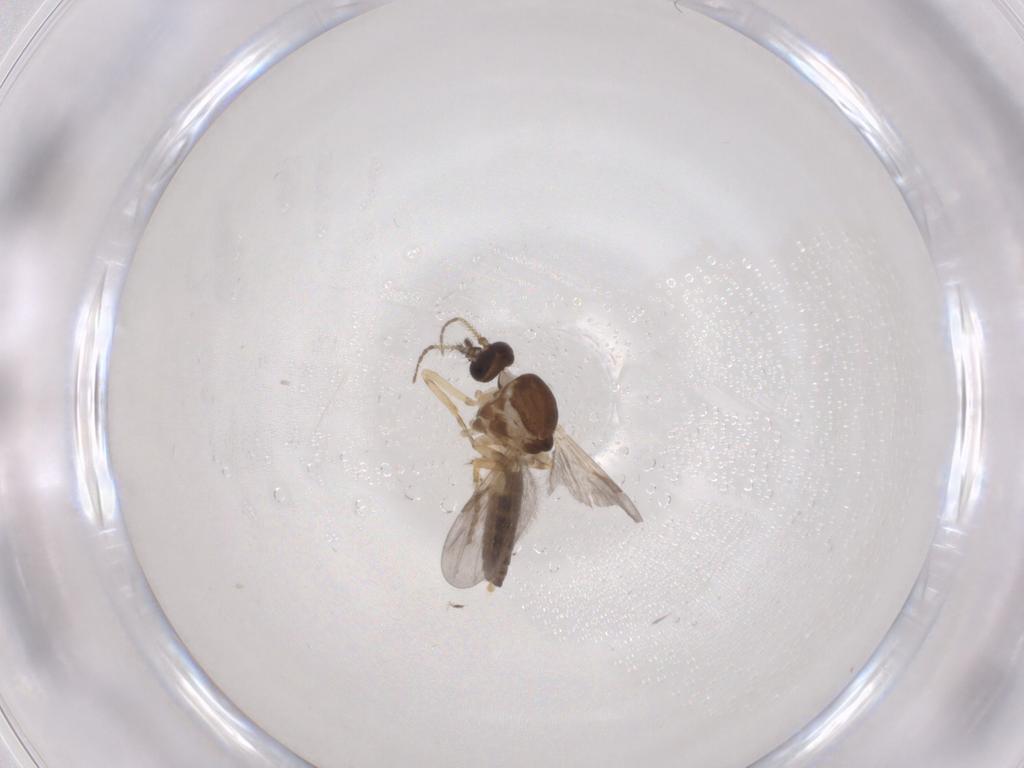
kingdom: Animalia
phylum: Arthropoda
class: Insecta
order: Diptera
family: Ceratopogonidae
